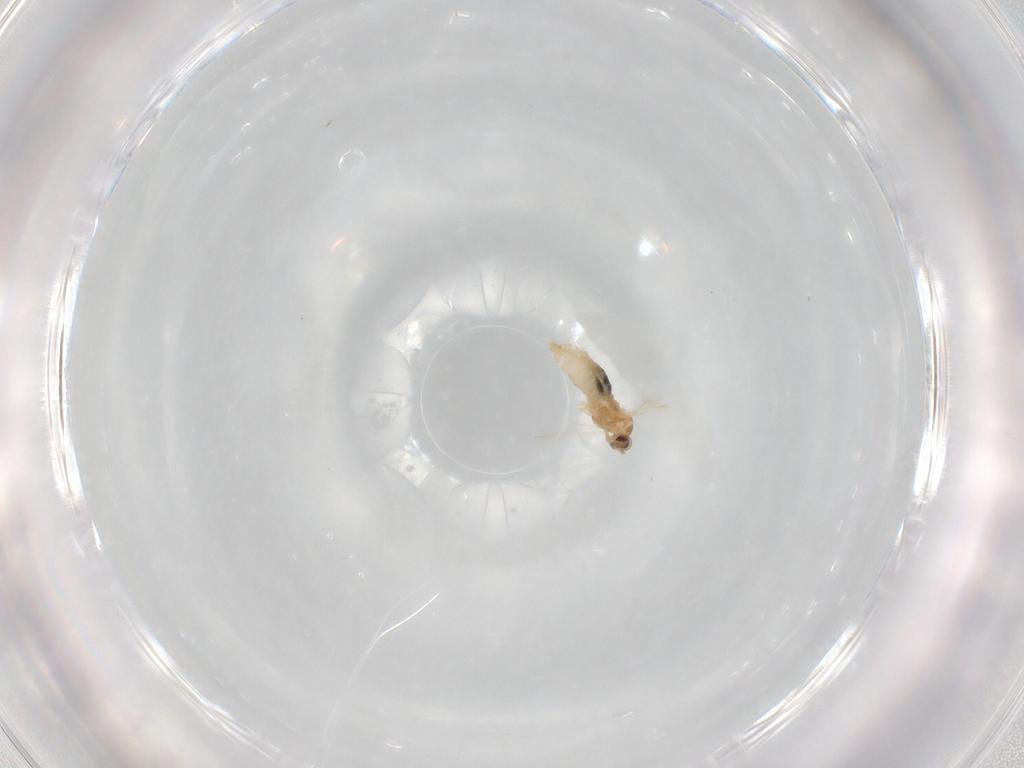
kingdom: Animalia
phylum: Arthropoda
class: Insecta
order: Diptera
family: Cecidomyiidae
